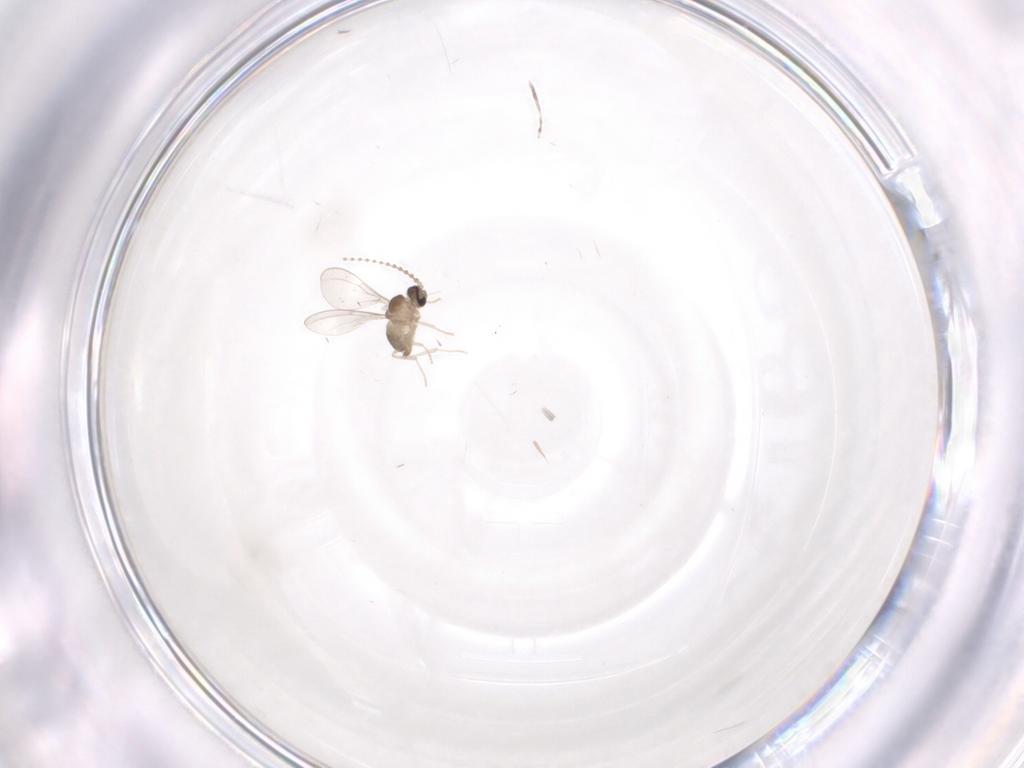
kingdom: Animalia
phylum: Arthropoda
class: Insecta
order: Diptera
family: Cecidomyiidae
